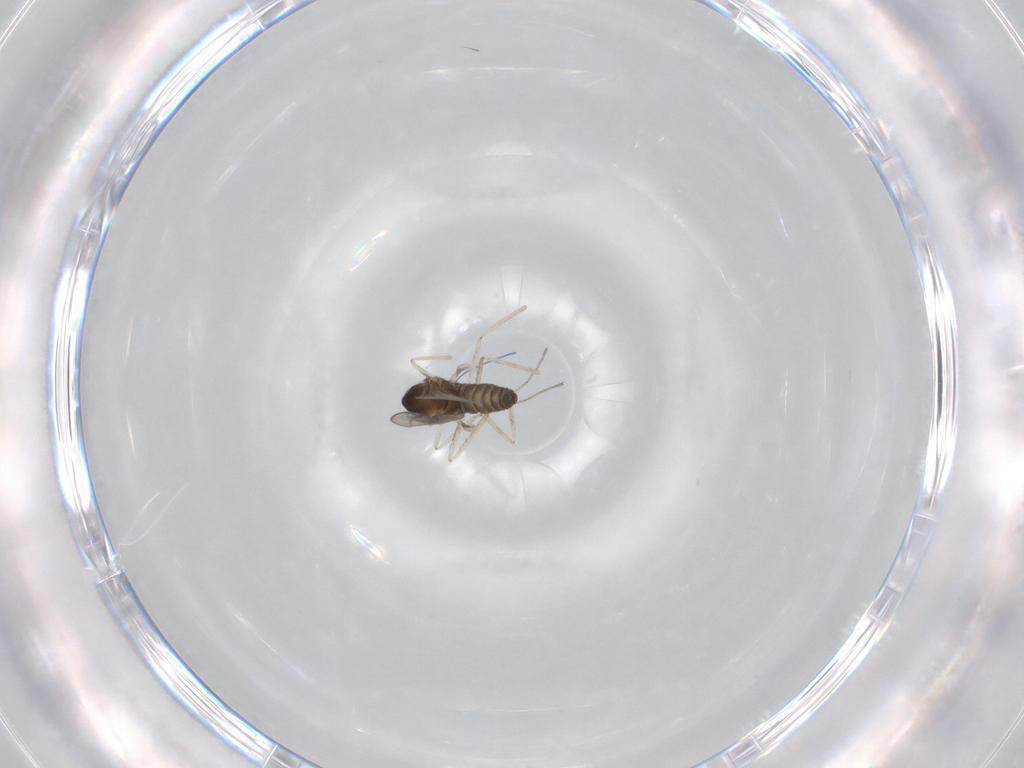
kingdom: Animalia
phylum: Arthropoda
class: Insecta
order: Diptera
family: Cecidomyiidae
